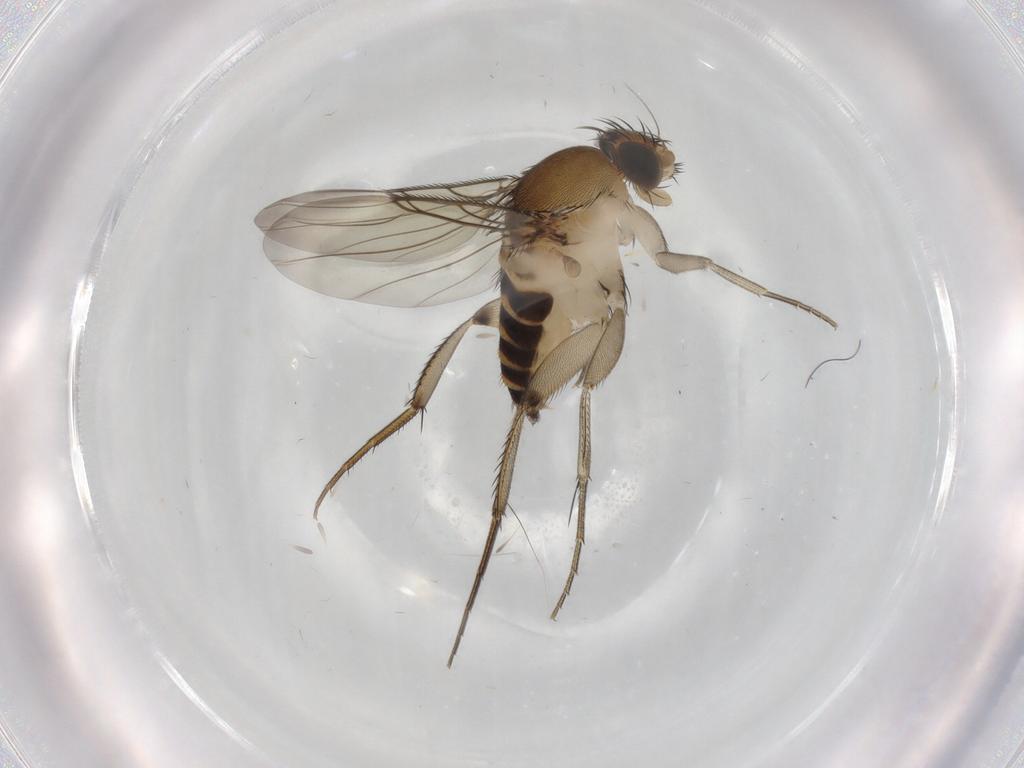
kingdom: Animalia
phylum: Arthropoda
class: Insecta
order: Diptera
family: Phoridae
